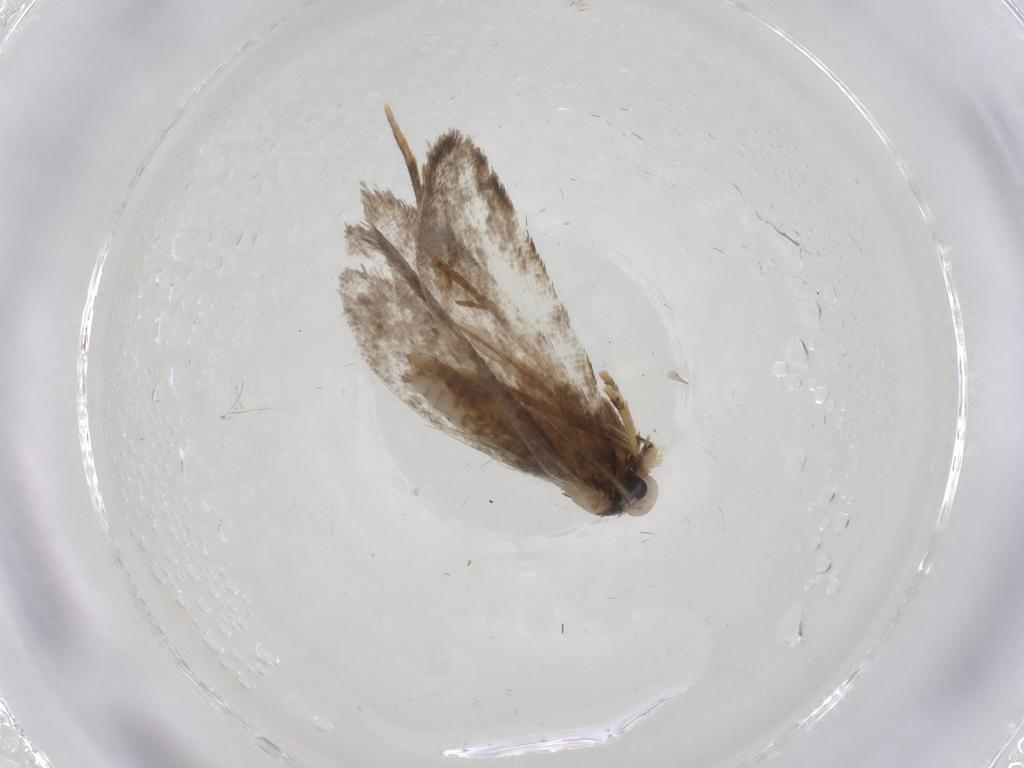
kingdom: Animalia
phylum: Arthropoda
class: Insecta
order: Lepidoptera
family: Psychidae
